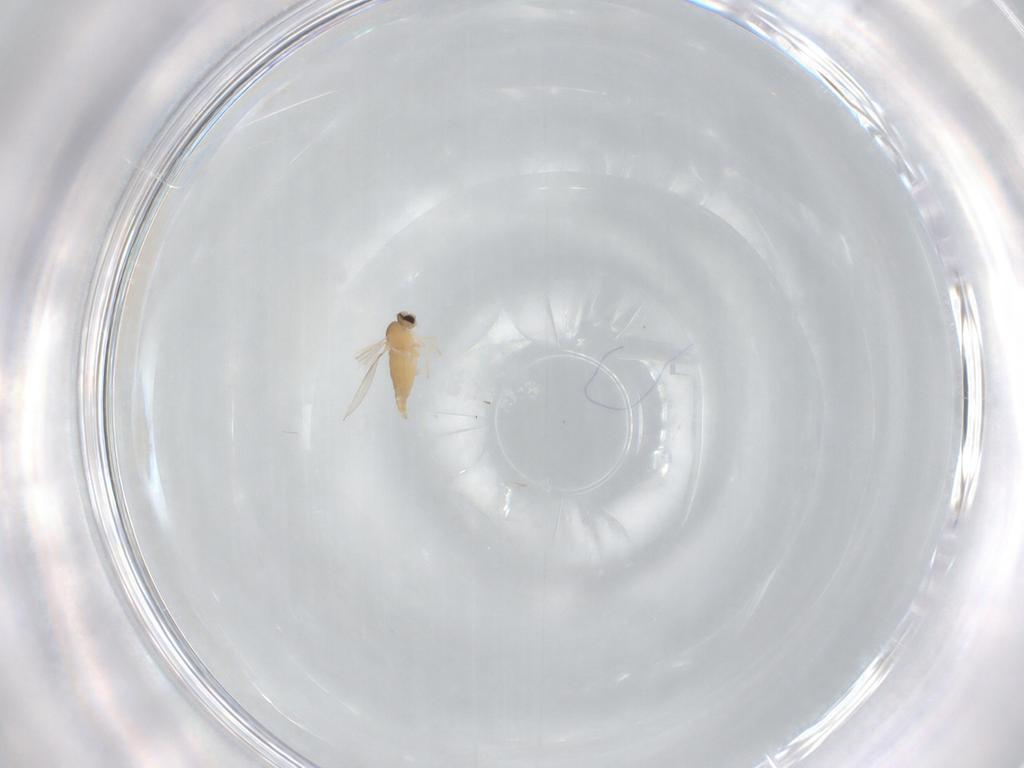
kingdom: Animalia
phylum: Arthropoda
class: Insecta
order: Diptera
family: Cecidomyiidae
